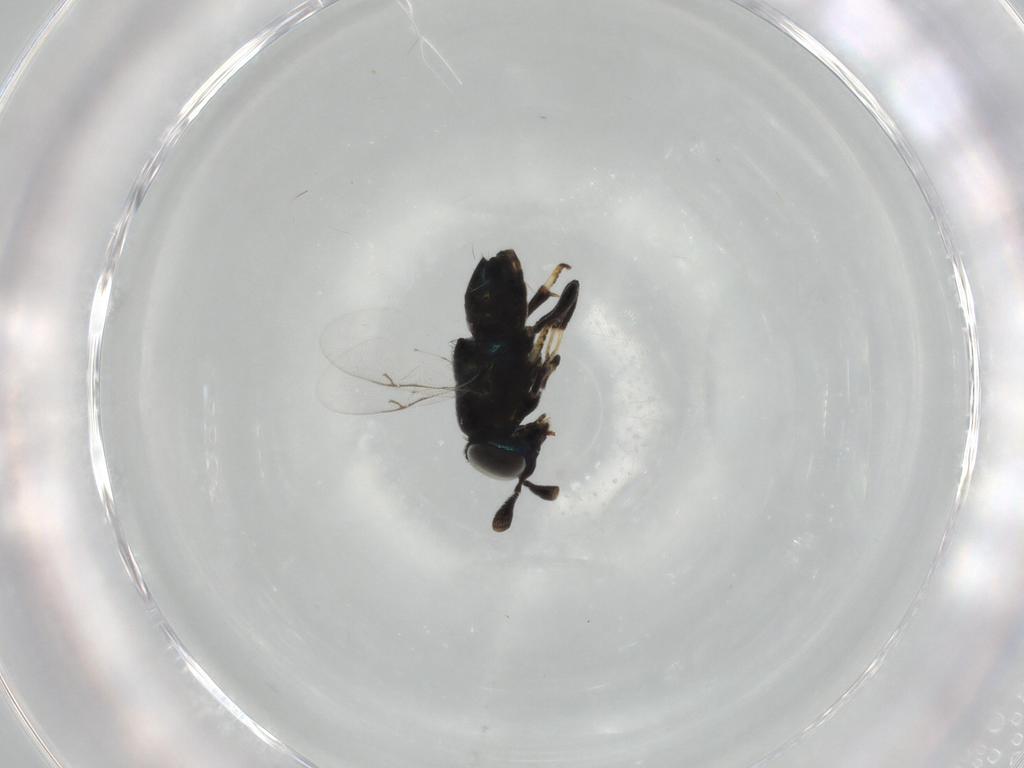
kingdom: Animalia
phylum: Arthropoda
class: Insecta
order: Hymenoptera
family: Encyrtidae
